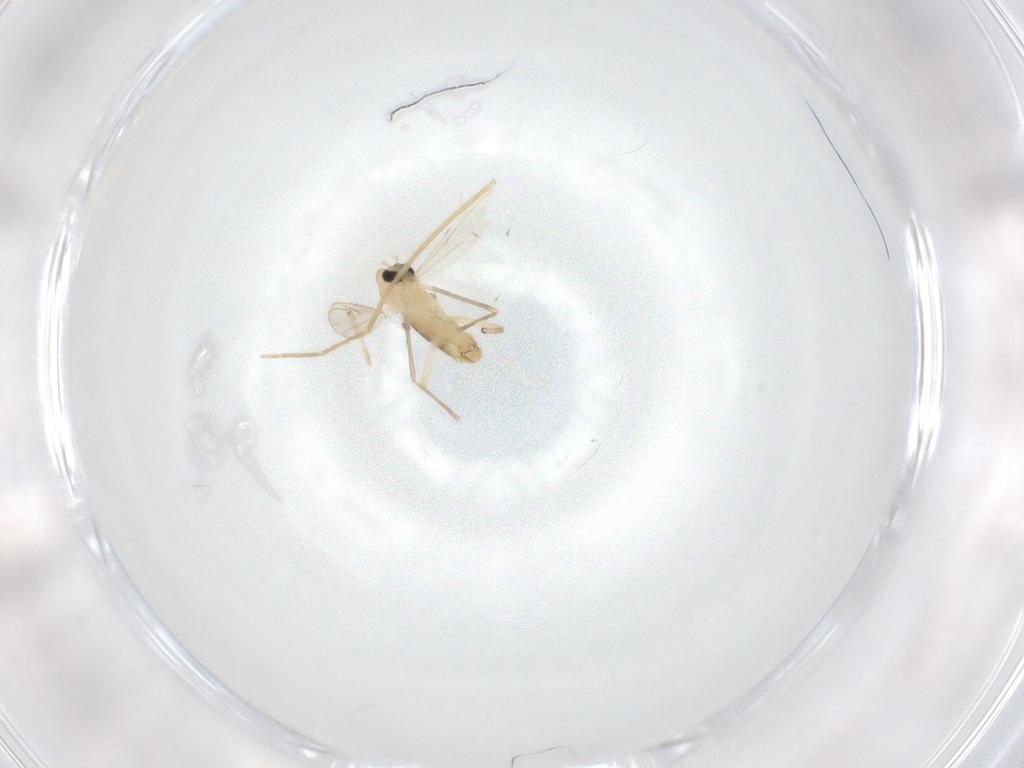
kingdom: Animalia
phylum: Arthropoda
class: Insecta
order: Diptera
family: Chironomidae
